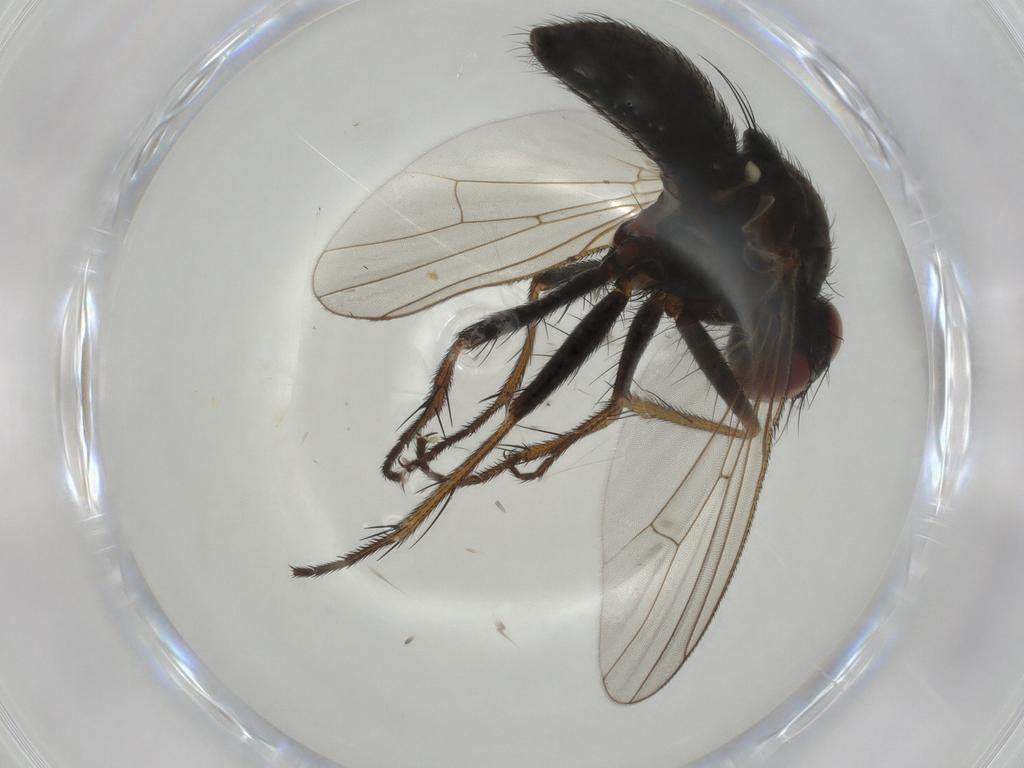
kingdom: Animalia
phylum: Arthropoda
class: Insecta
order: Diptera
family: Muscidae
